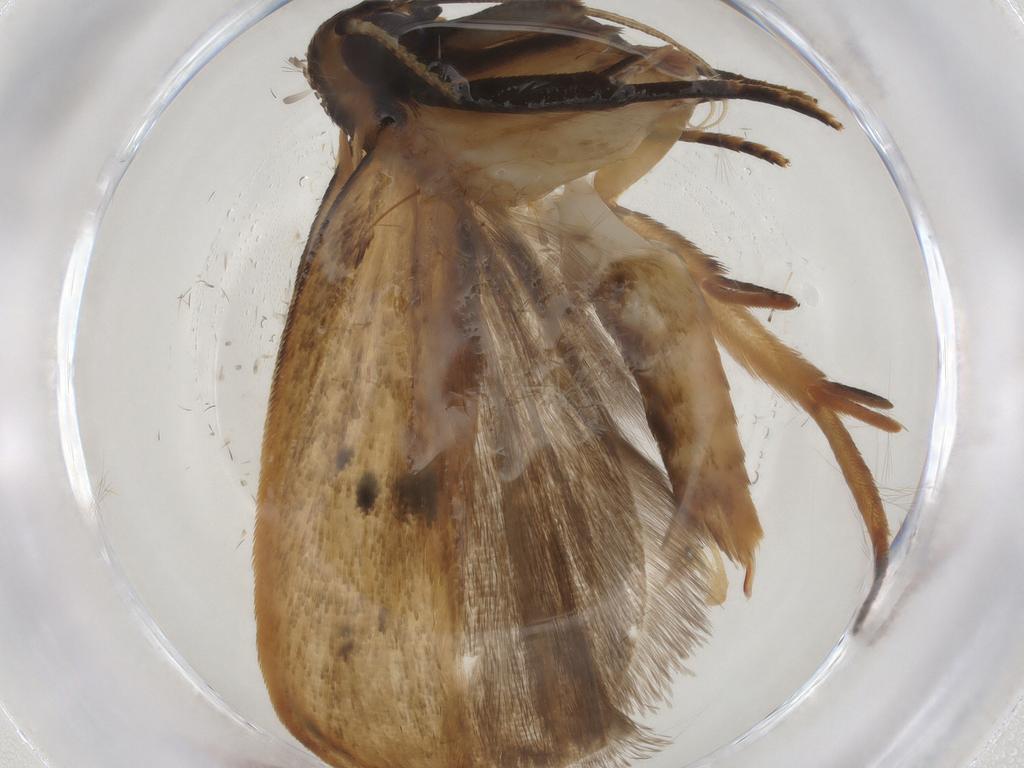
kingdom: Animalia
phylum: Arthropoda
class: Insecta
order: Lepidoptera
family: Psychidae
